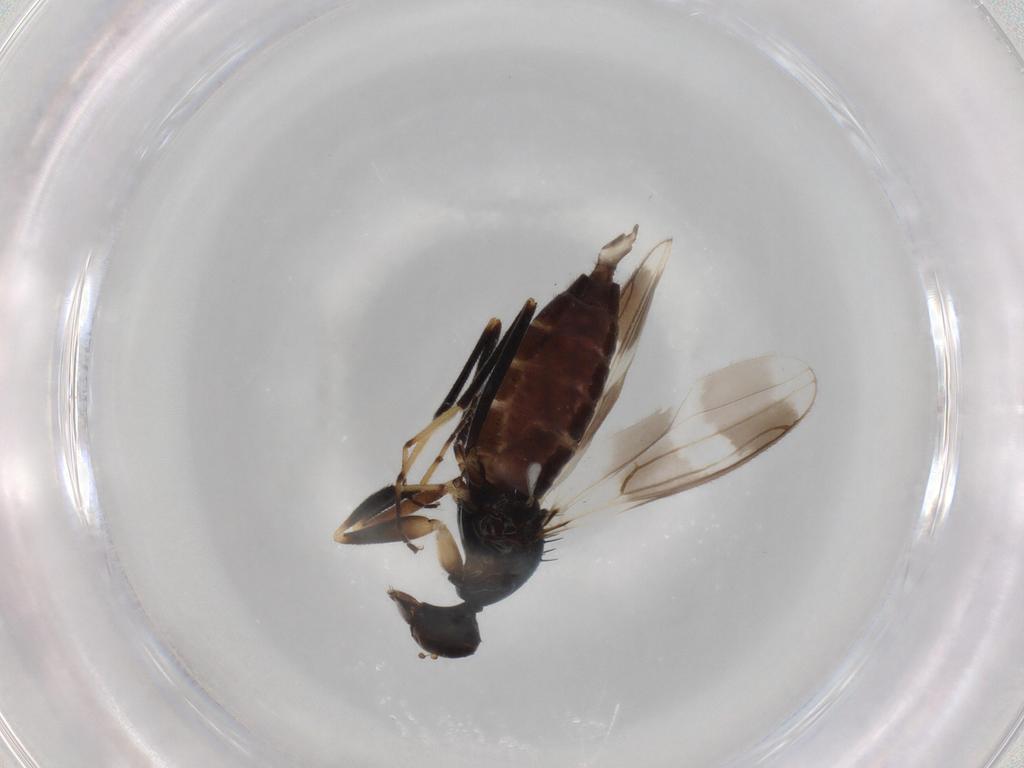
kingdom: Animalia
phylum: Arthropoda
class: Insecta
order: Diptera
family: Hybotidae
